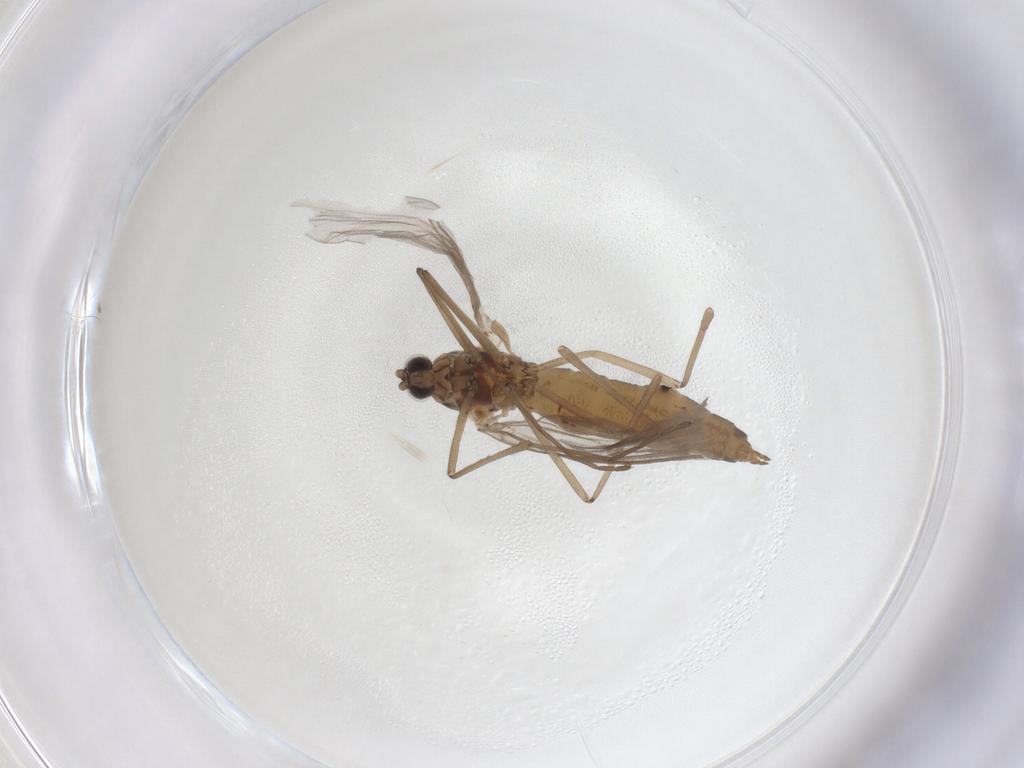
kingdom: Animalia
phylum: Arthropoda
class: Insecta
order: Diptera
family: Cecidomyiidae
